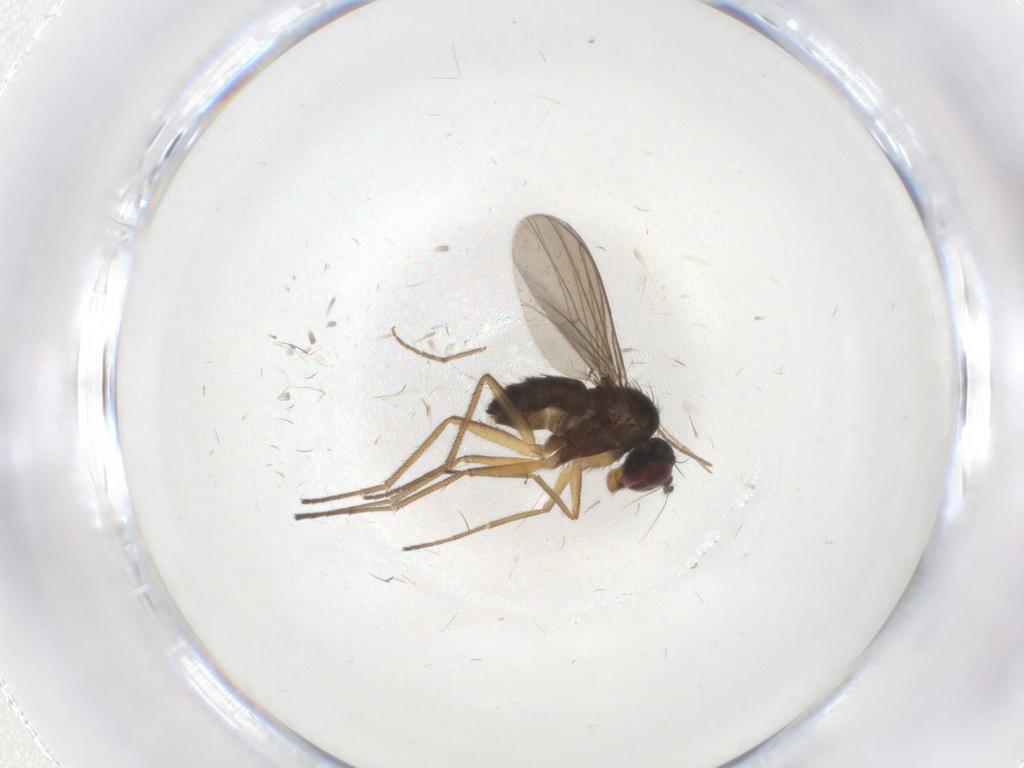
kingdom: Animalia
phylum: Arthropoda
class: Insecta
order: Diptera
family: Dolichopodidae
